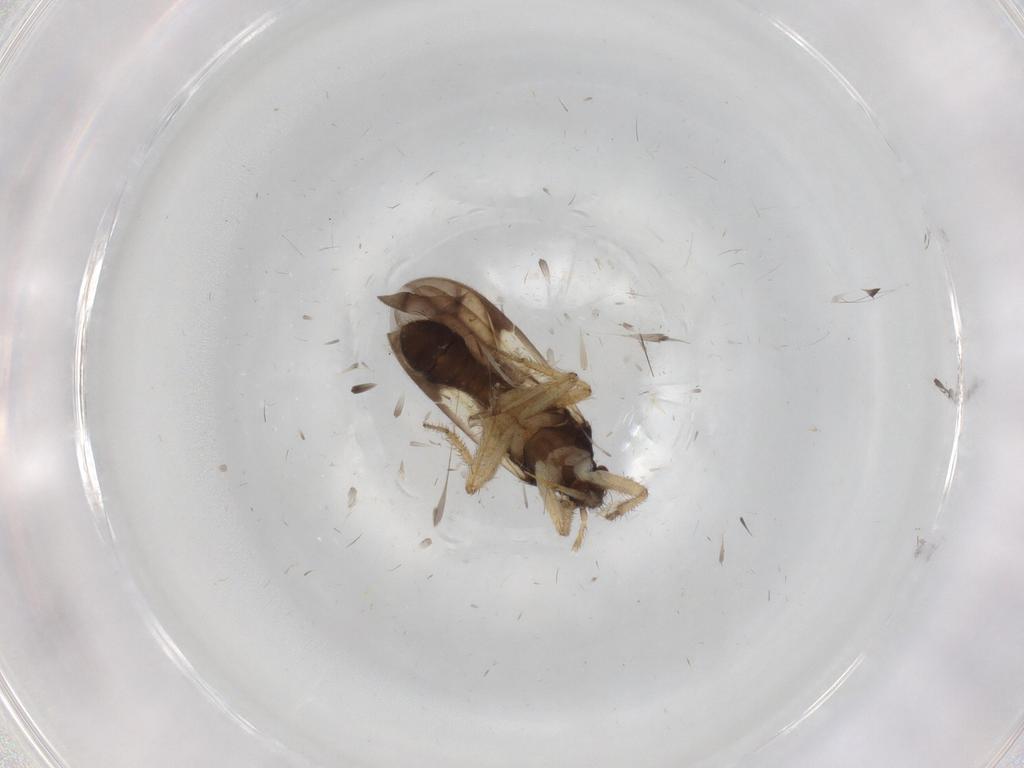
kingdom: Animalia
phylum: Arthropoda
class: Insecta
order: Hemiptera
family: Ceratocombidae
